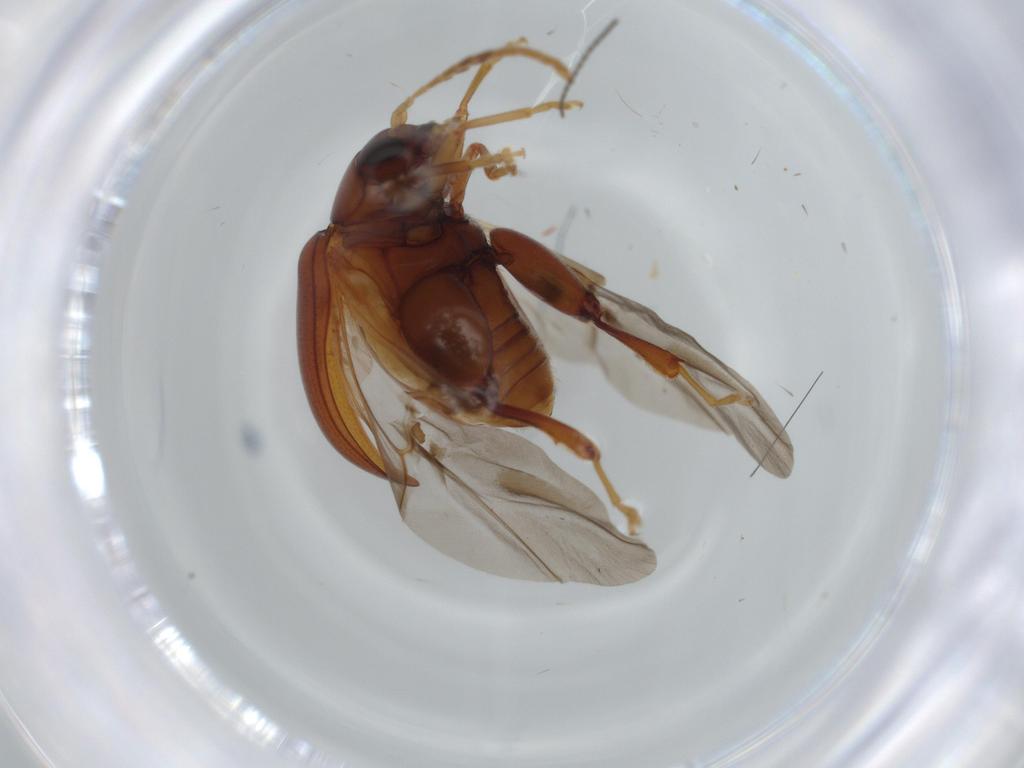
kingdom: Animalia
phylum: Arthropoda
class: Insecta
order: Coleoptera
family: Chrysomelidae
